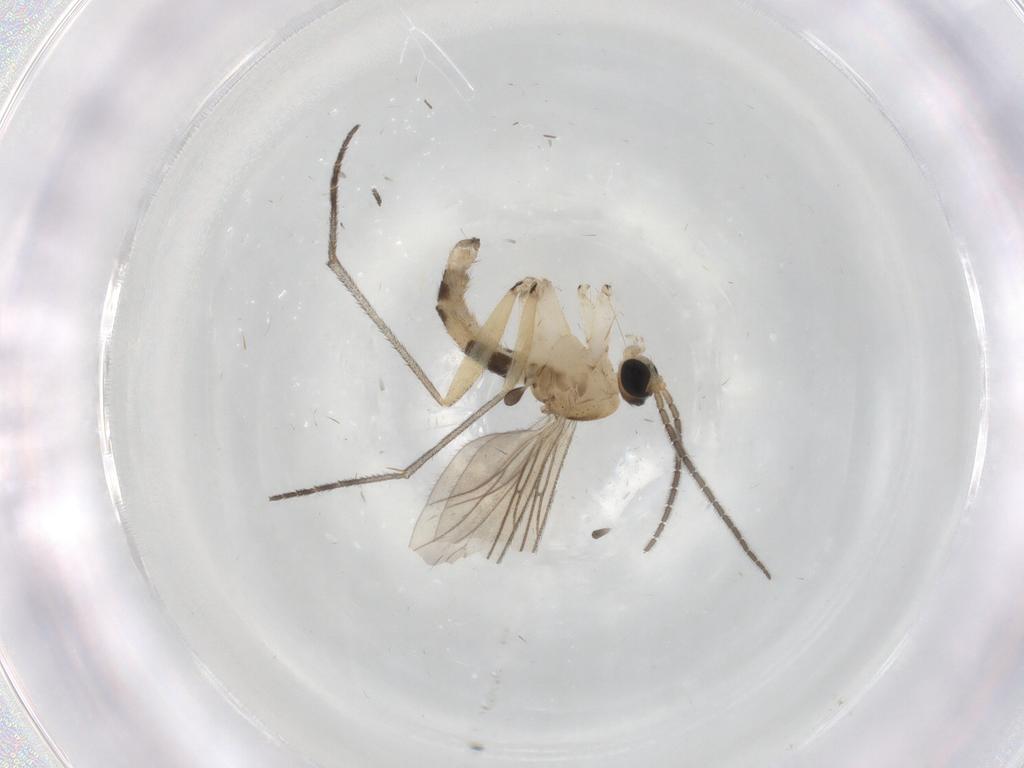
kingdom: Animalia
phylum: Arthropoda
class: Insecta
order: Diptera
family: Ceratopogonidae
